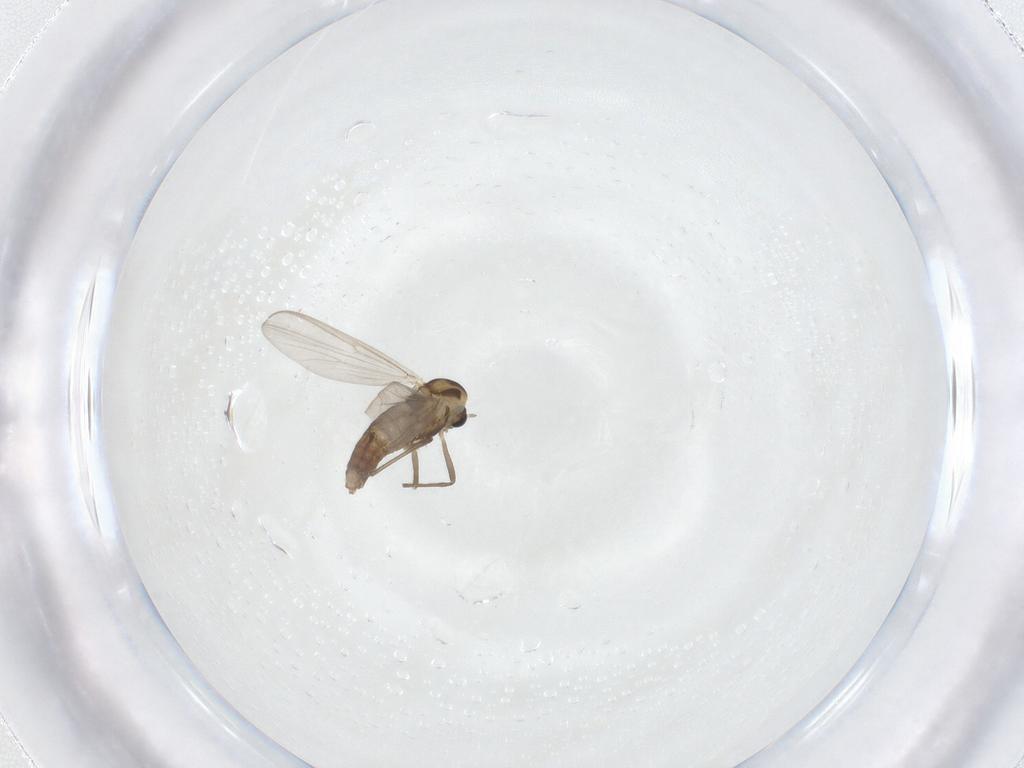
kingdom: Animalia
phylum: Arthropoda
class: Insecta
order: Diptera
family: Chironomidae
